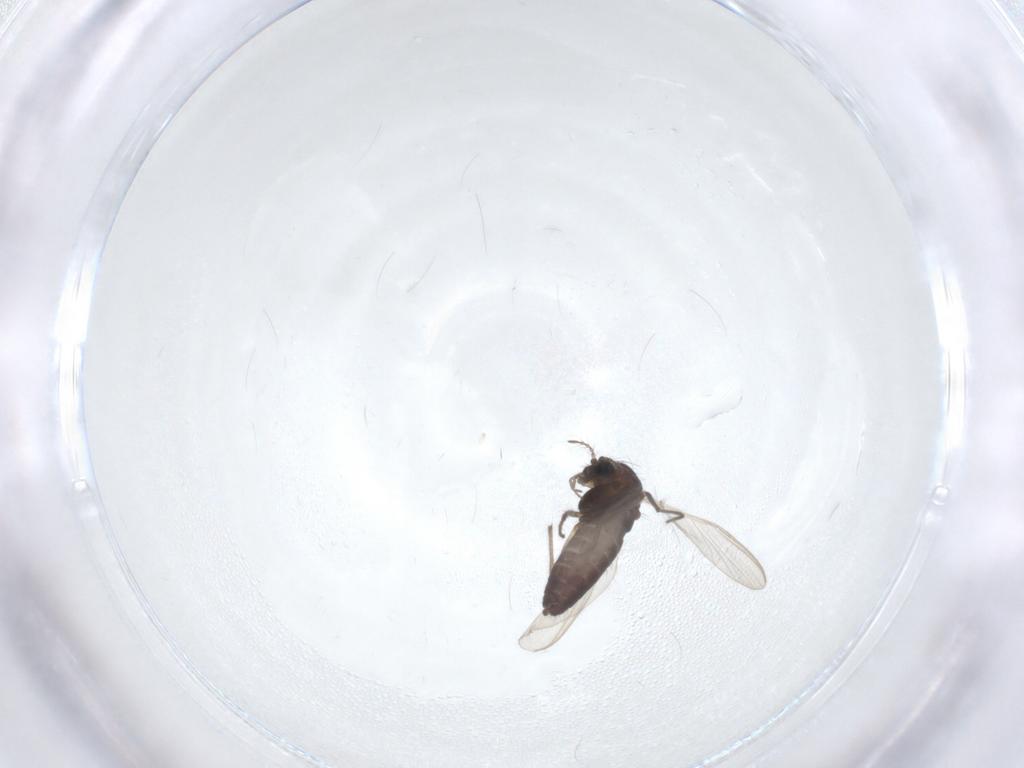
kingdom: Animalia
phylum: Arthropoda
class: Insecta
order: Diptera
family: Chironomidae
